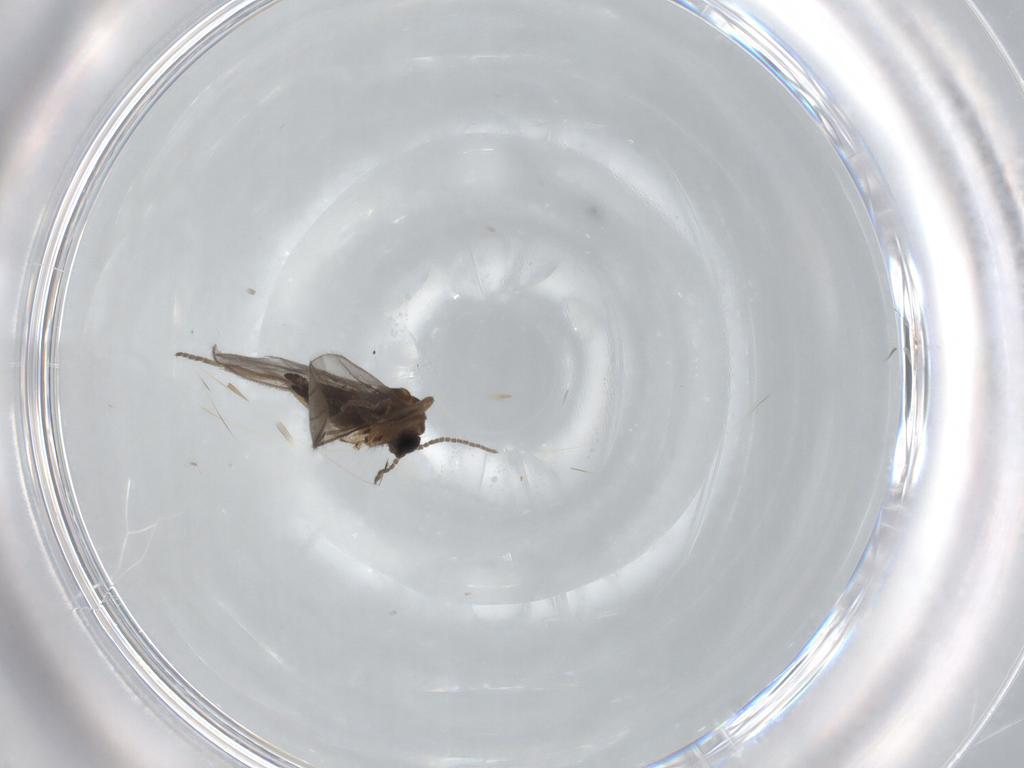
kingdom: Animalia
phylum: Arthropoda
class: Insecta
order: Diptera
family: Sciaridae
